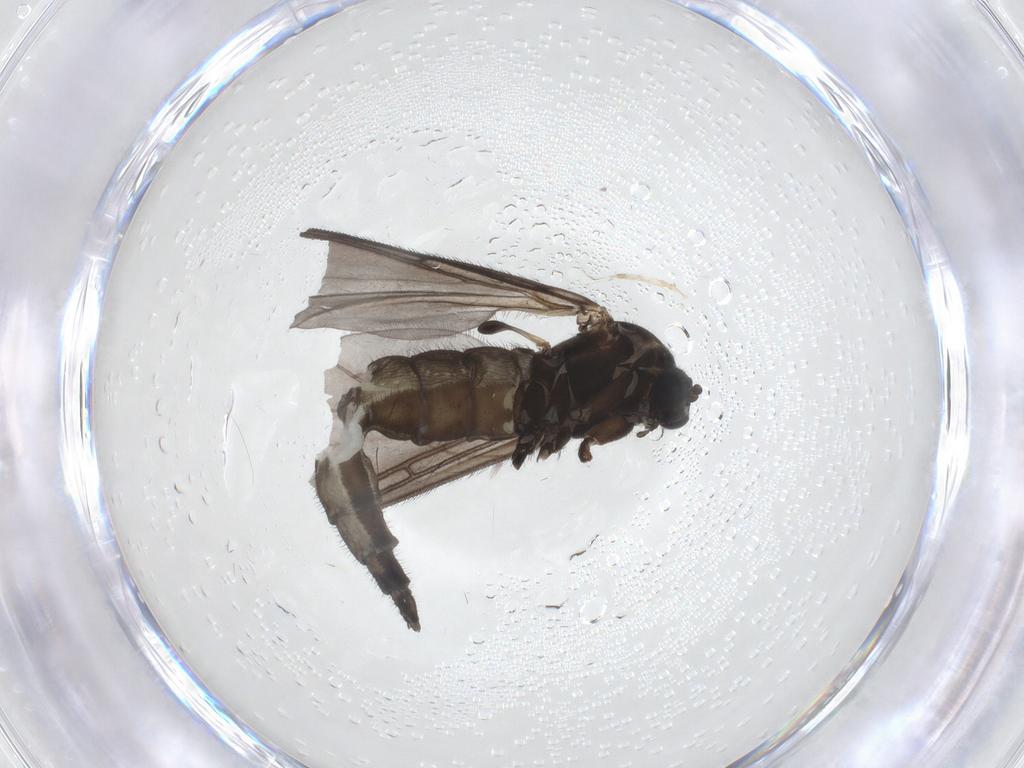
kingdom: Animalia
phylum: Arthropoda
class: Insecta
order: Diptera
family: Sciaridae
